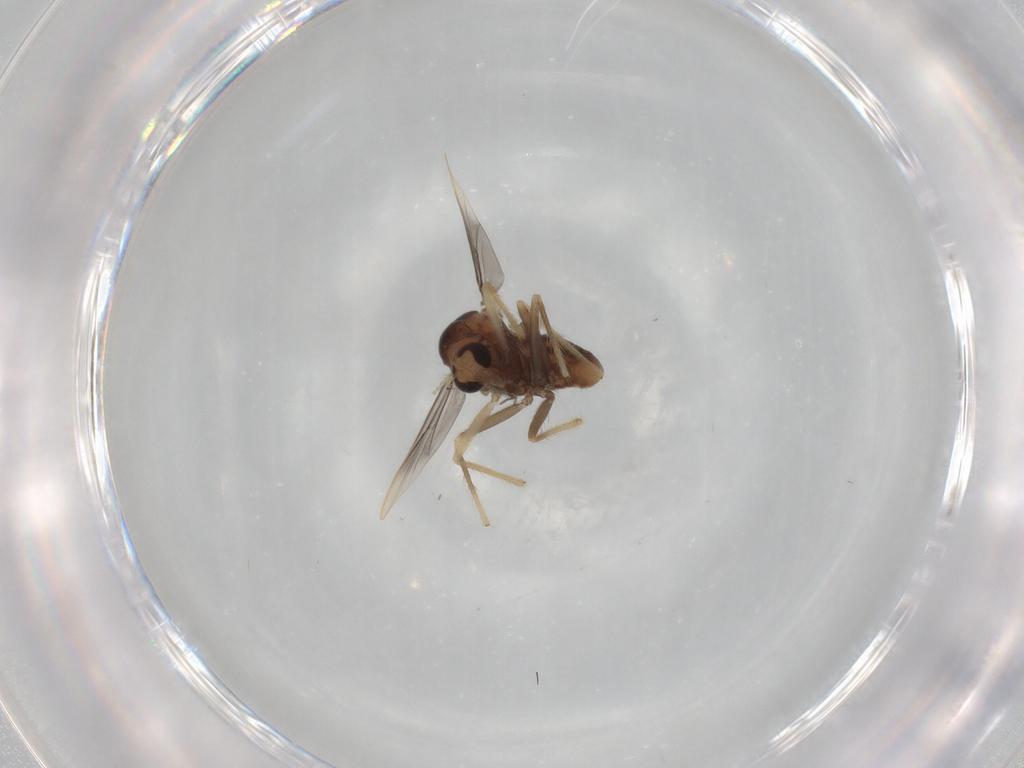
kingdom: Animalia
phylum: Arthropoda
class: Insecta
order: Diptera
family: Chironomidae
